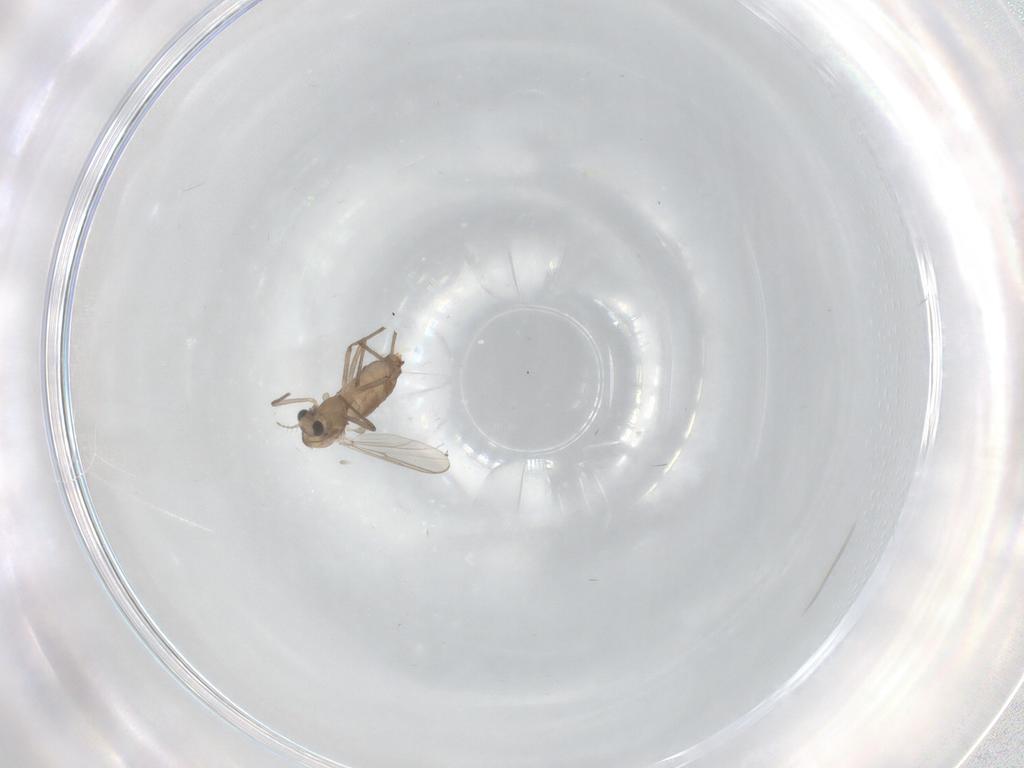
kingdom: Animalia
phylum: Arthropoda
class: Insecta
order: Diptera
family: Chironomidae
